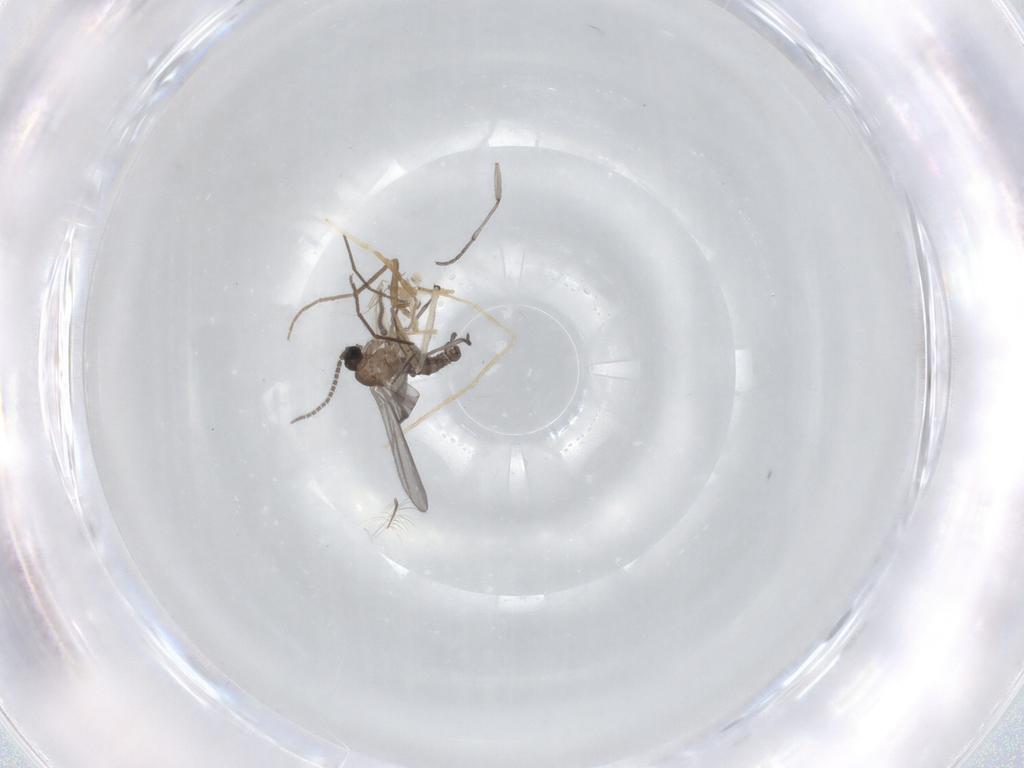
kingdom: Animalia
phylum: Arthropoda
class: Insecta
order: Diptera
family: Sciaridae
